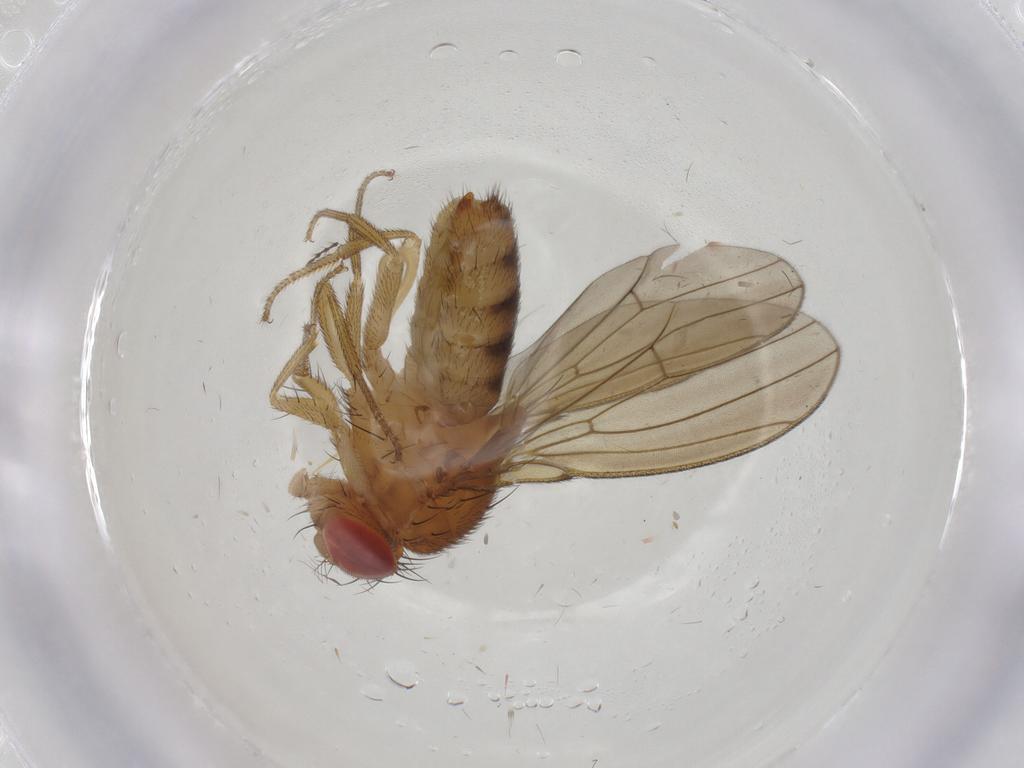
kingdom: Animalia
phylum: Arthropoda
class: Insecta
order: Diptera
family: Drosophilidae
